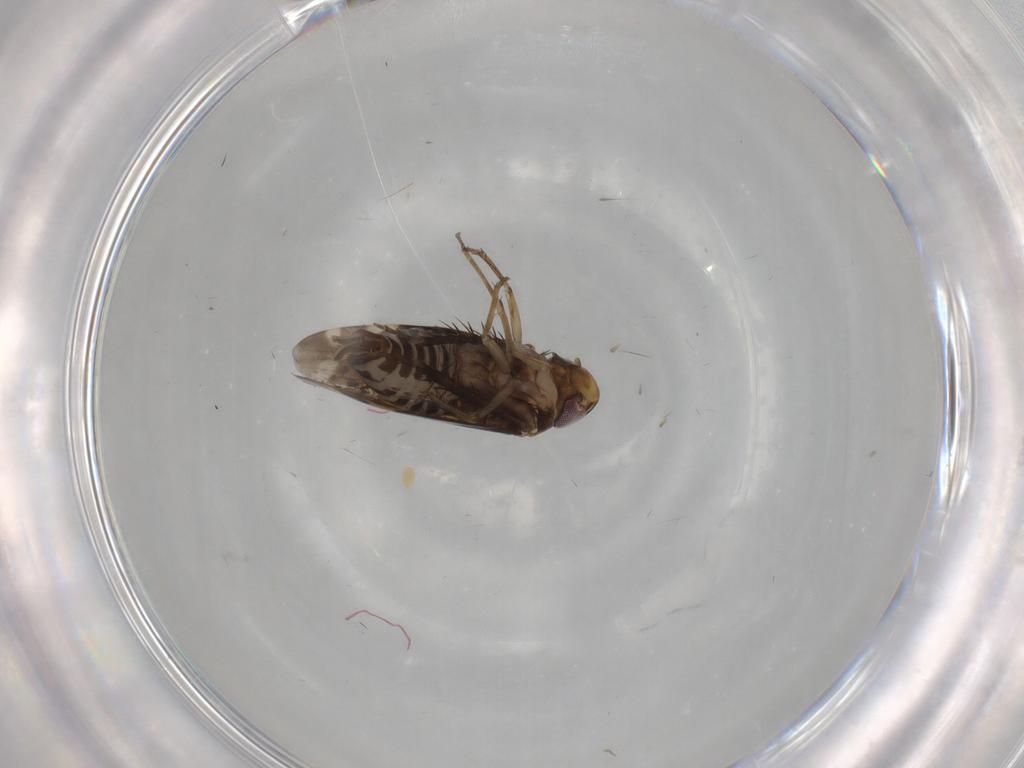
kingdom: Animalia
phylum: Arthropoda
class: Insecta
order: Hemiptera
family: Cicadellidae
